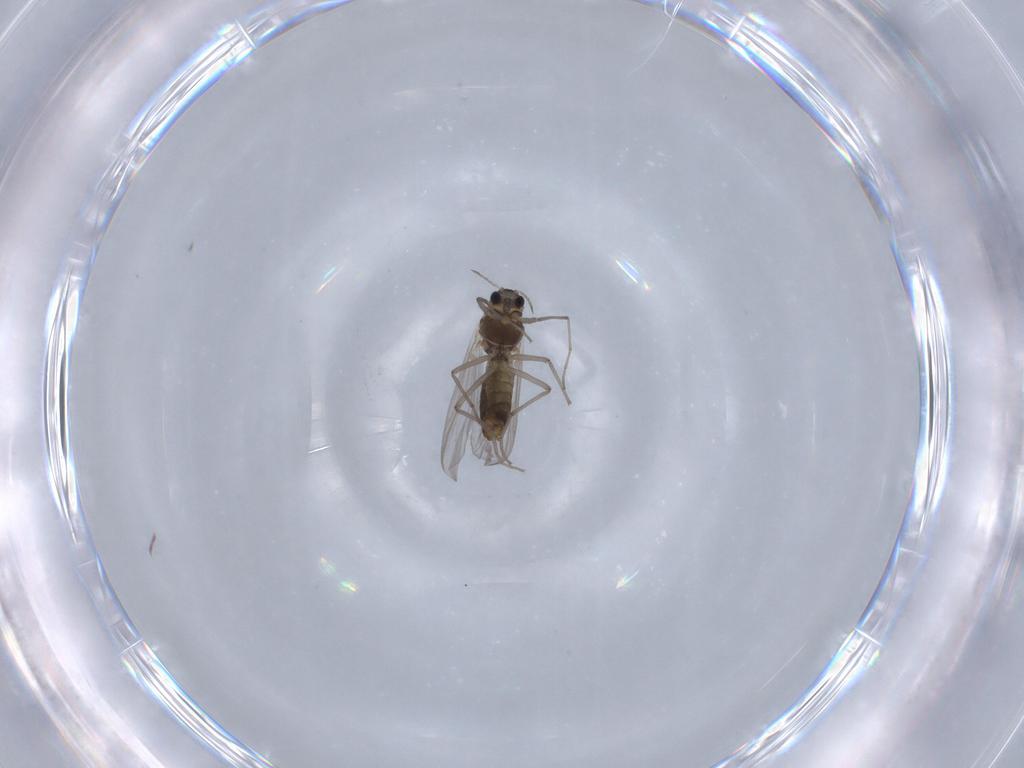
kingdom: Animalia
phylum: Arthropoda
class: Insecta
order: Diptera
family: Chironomidae
